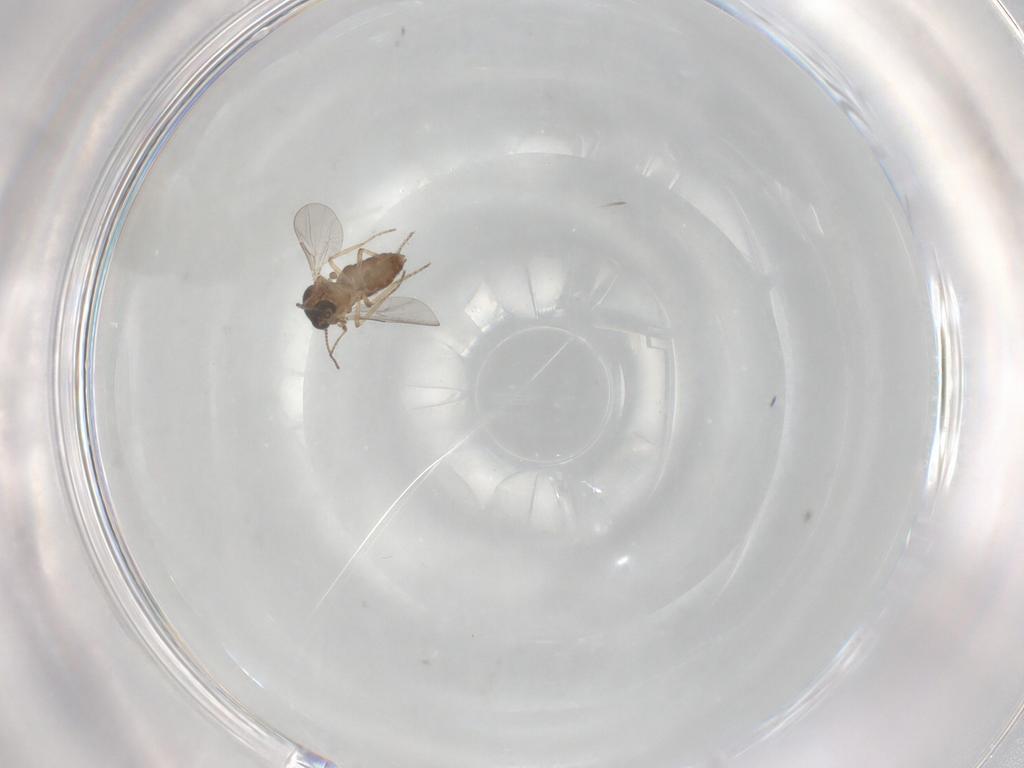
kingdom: Animalia
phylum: Arthropoda
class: Insecta
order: Diptera
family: Ceratopogonidae
